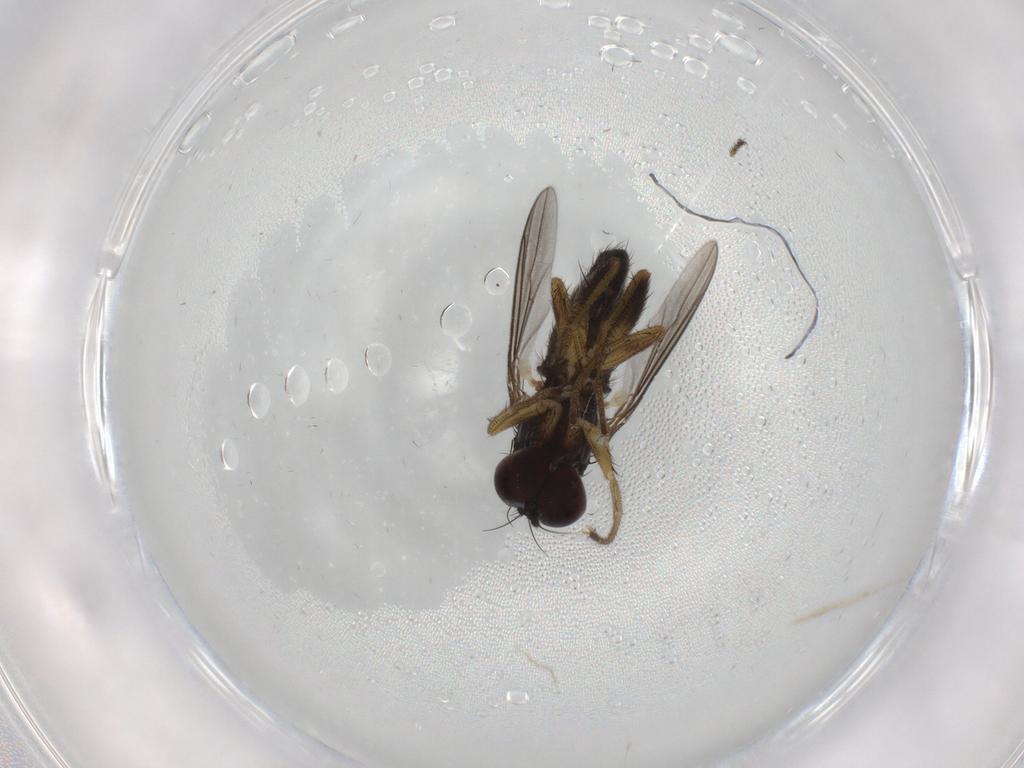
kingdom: Animalia
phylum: Arthropoda
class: Insecta
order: Diptera
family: Dolichopodidae
